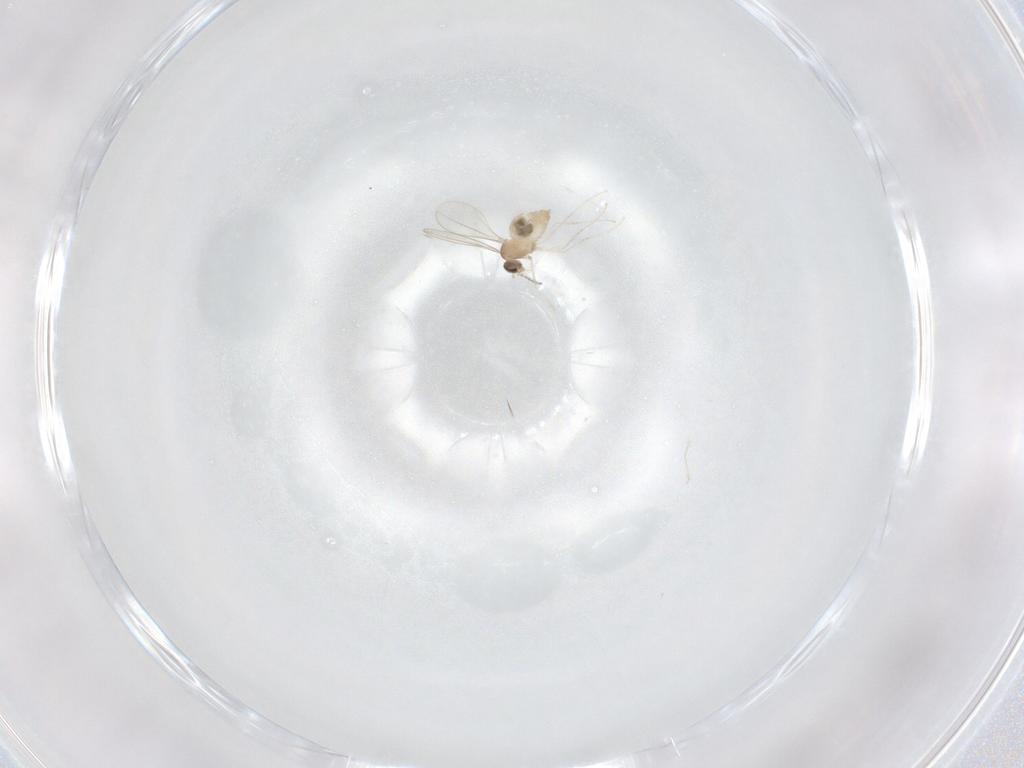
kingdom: Animalia
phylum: Arthropoda
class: Insecta
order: Diptera
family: Cecidomyiidae
